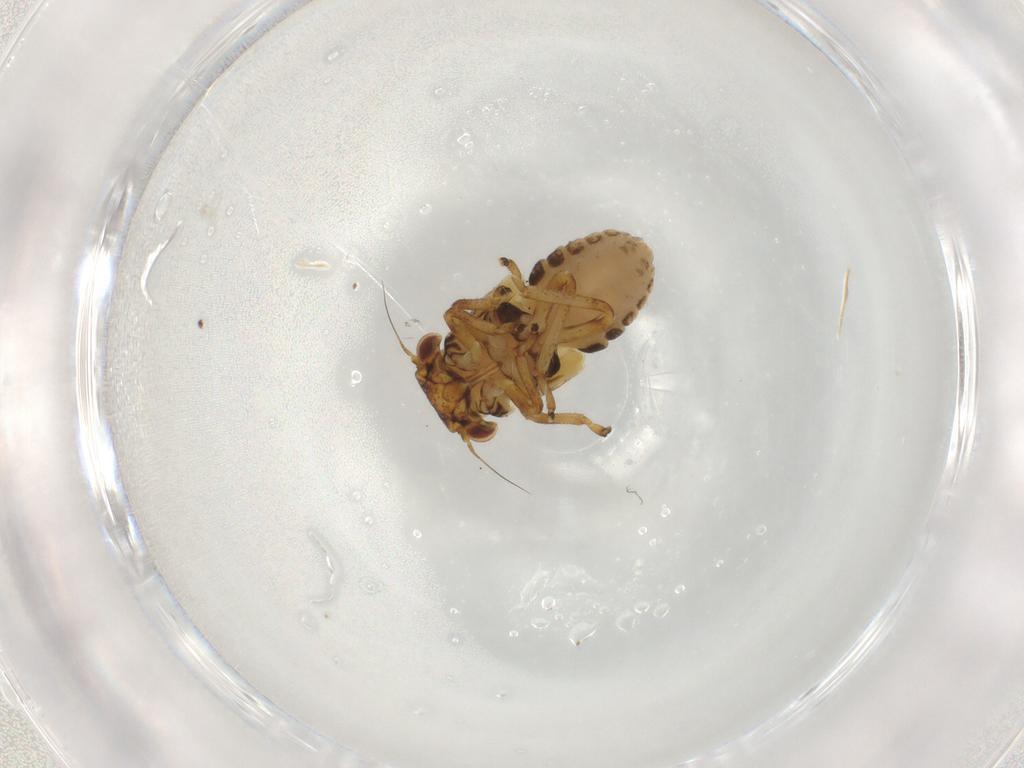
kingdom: Animalia
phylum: Arthropoda
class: Insecta
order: Hemiptera
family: Cicadellidae
